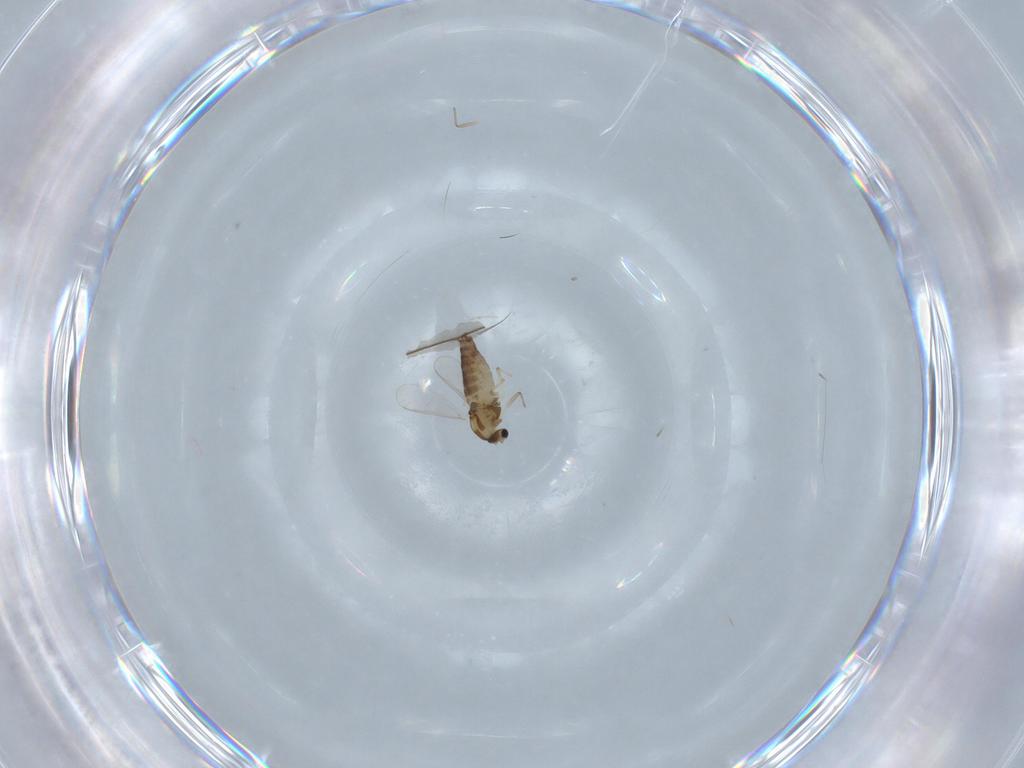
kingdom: Animalia
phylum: Arthropoda
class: Insecta
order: Diptera
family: Chironomidae
